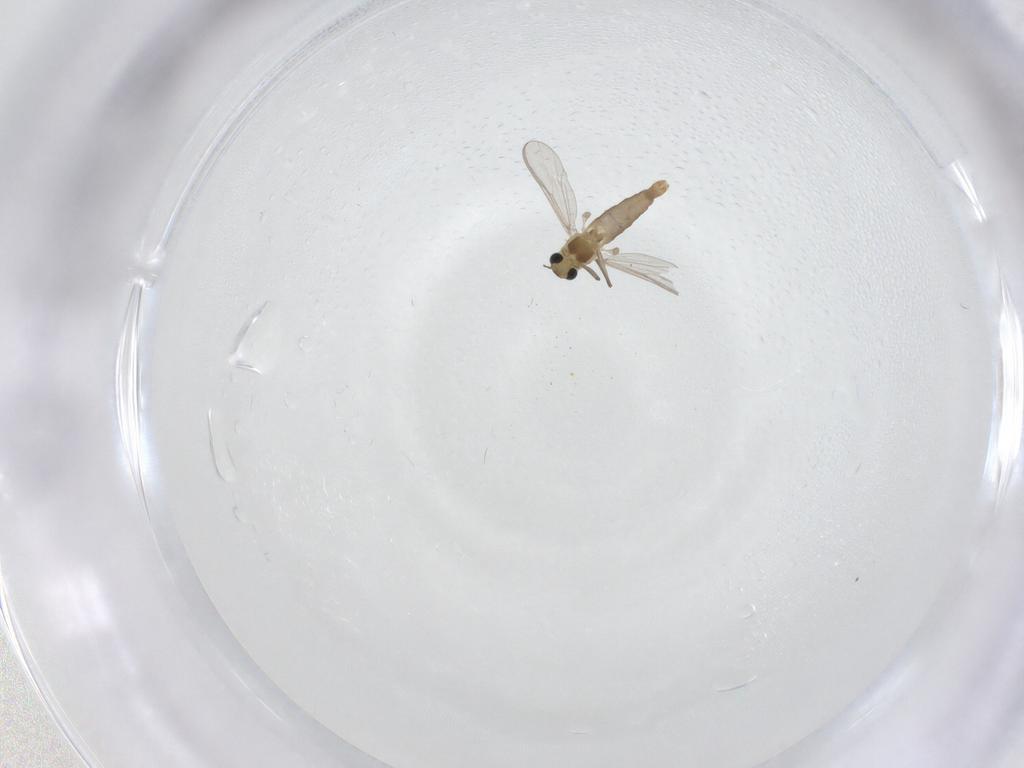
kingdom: Animalia
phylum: Arthropoda
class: Insecta
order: Diptera
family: Chironomidae
